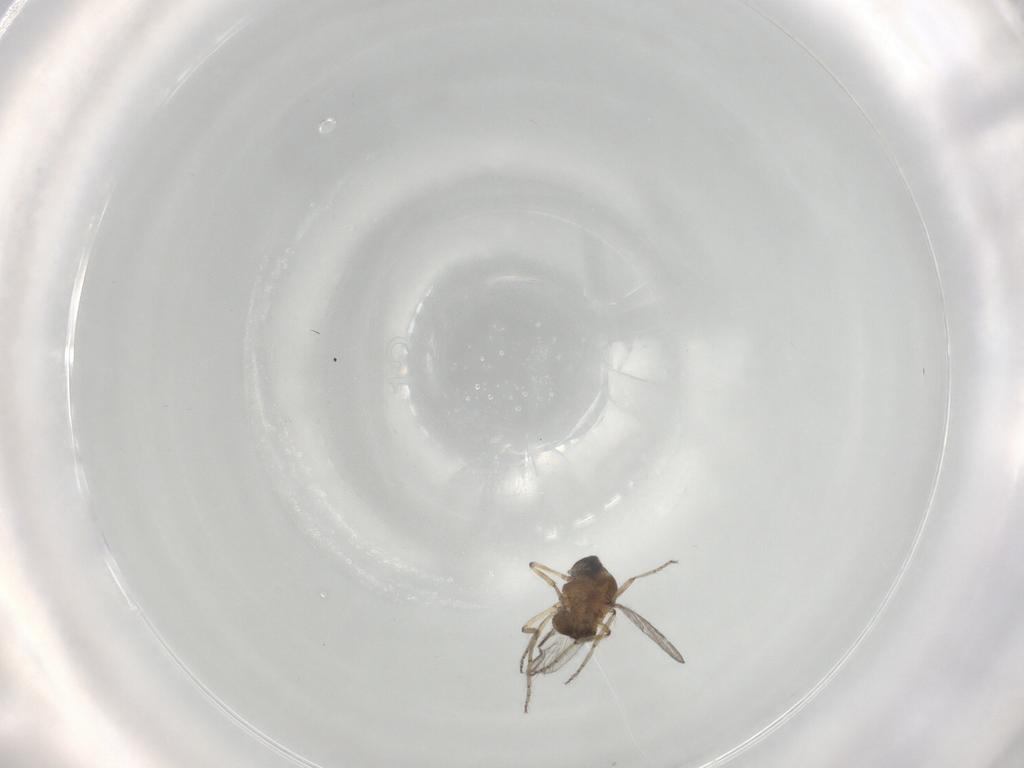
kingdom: Animalia
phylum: Arthropoda
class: Insecta
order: Diptera
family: Ceratopogonidae
